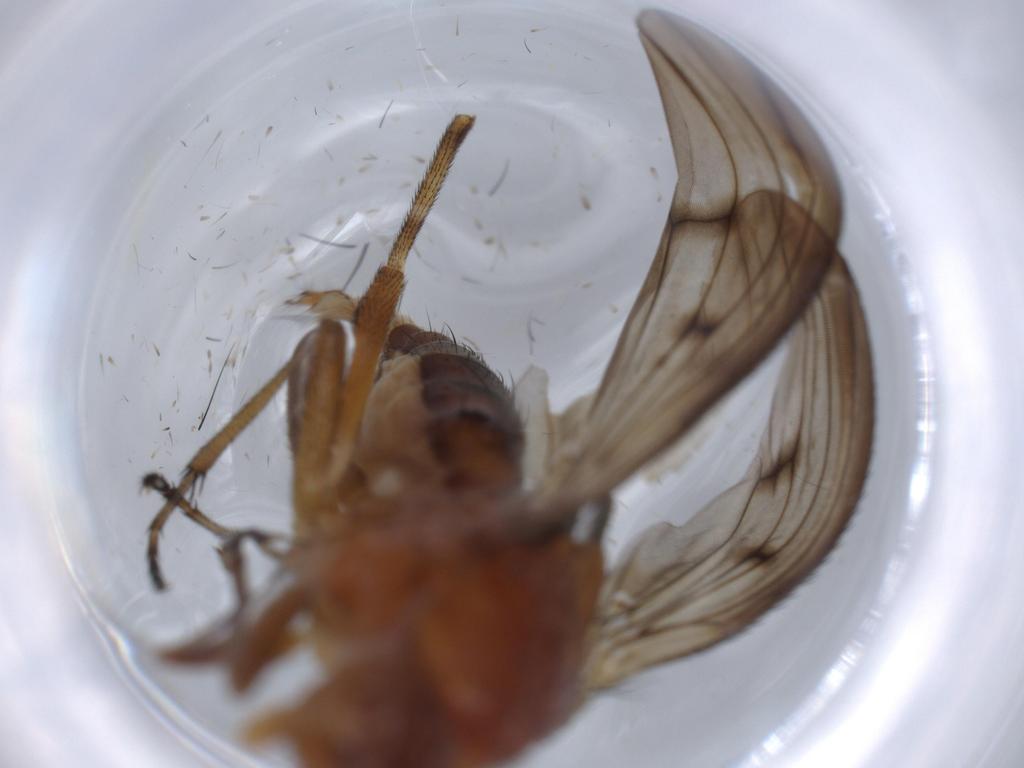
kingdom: Animalia
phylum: Arthropoda
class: Insecta
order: Diptera
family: Heleomyzidae
